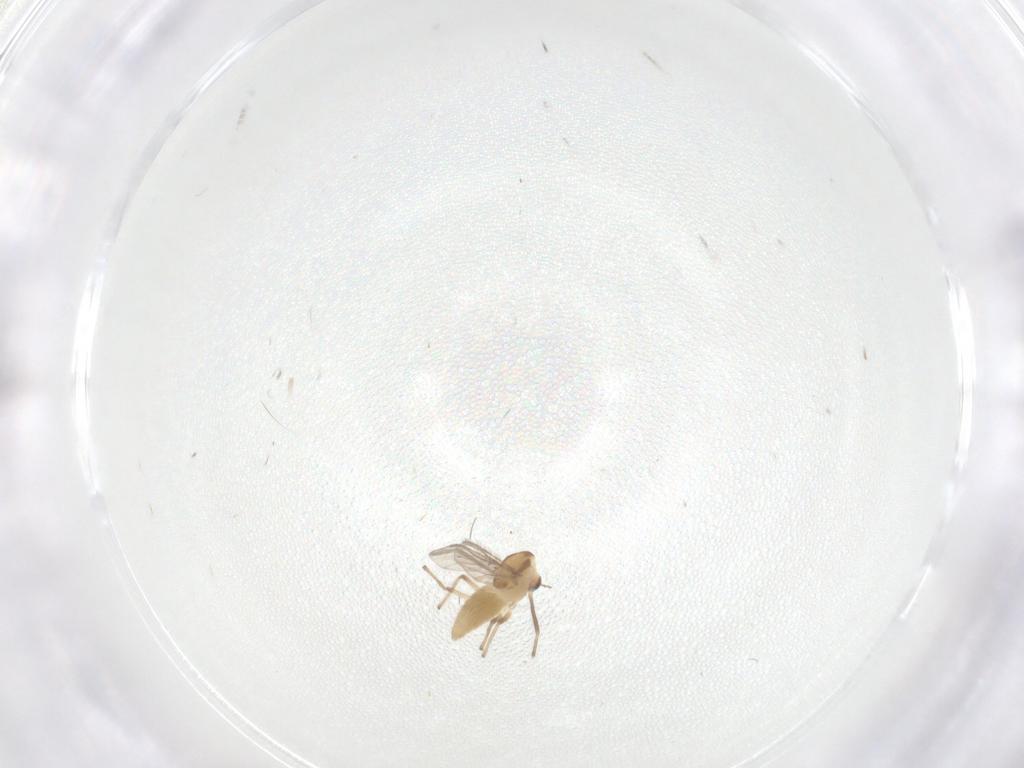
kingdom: Animalia
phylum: Arthropoda
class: Insecta
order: Diptera
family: Chironomidae
